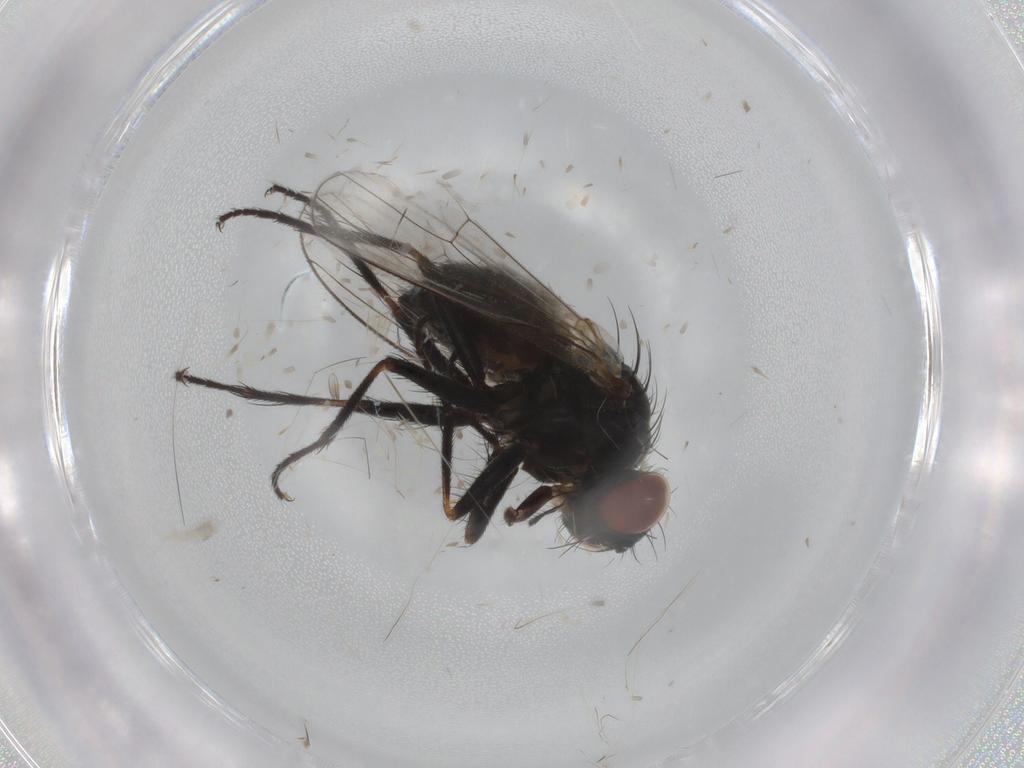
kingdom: Animalia
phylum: Arthropoda
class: Insecta
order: Diptera
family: Muscidae
